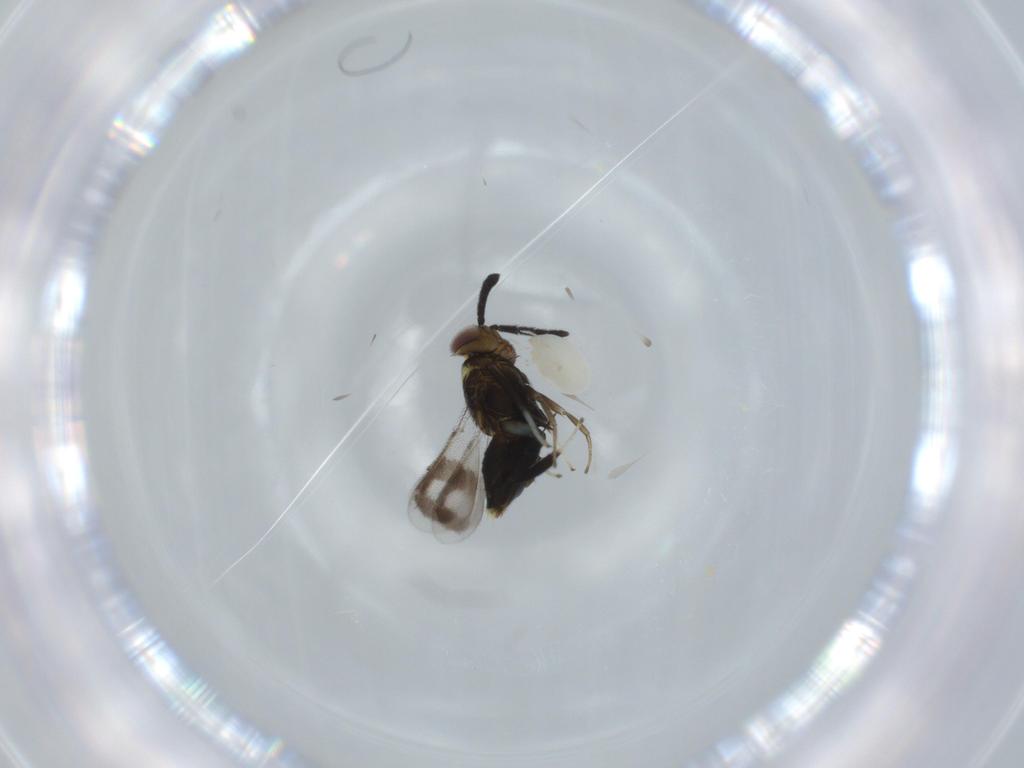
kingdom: Animalia
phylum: Arthropoda
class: Insecta
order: Hymenoptera
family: Aphelinidae
